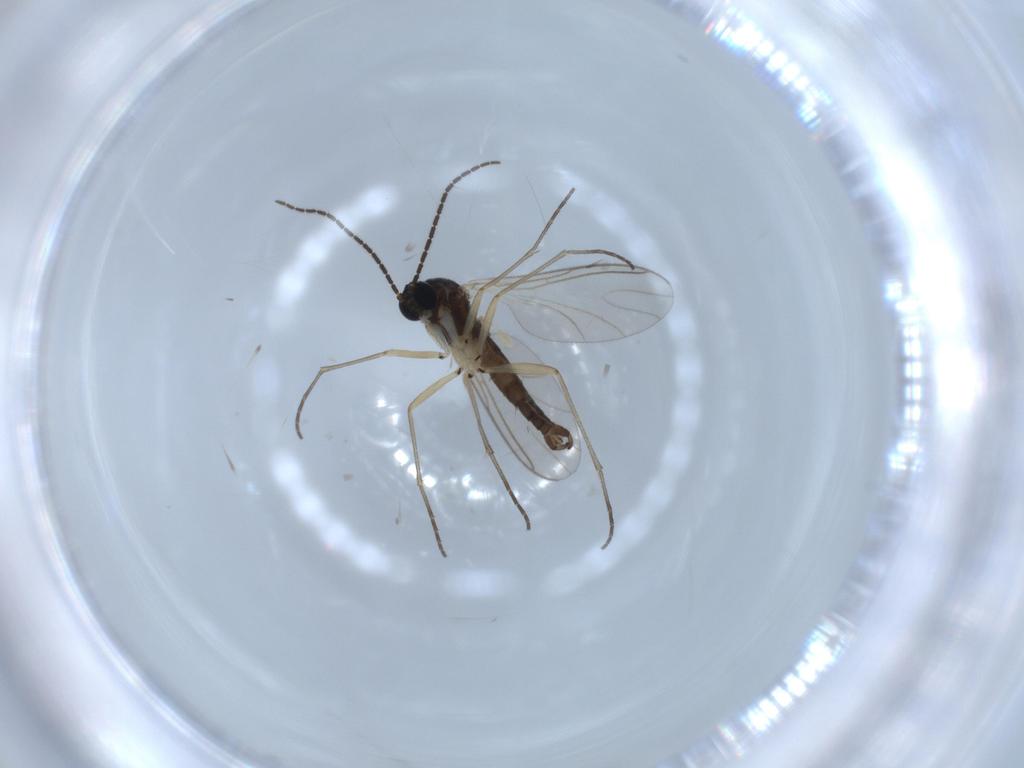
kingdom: Animalia
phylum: Arthropoda
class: Insecta
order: Diptera
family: Sciaridae
